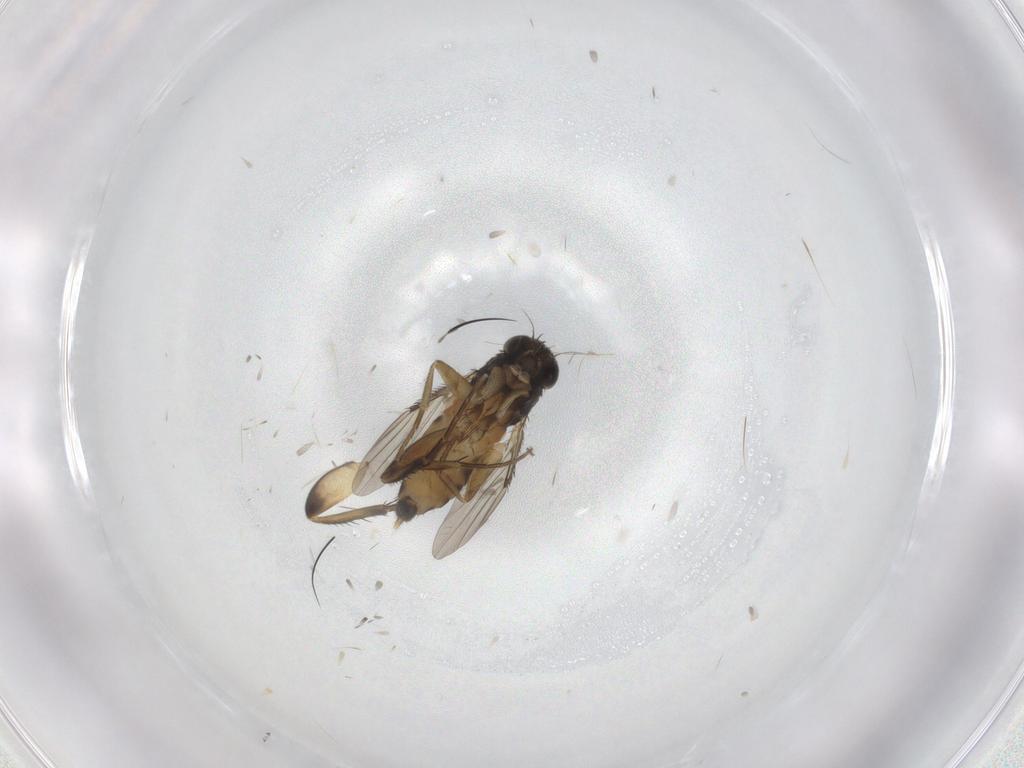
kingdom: Animalia
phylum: Arthropoda
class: Insecta
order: Diptera
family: Phoridae
